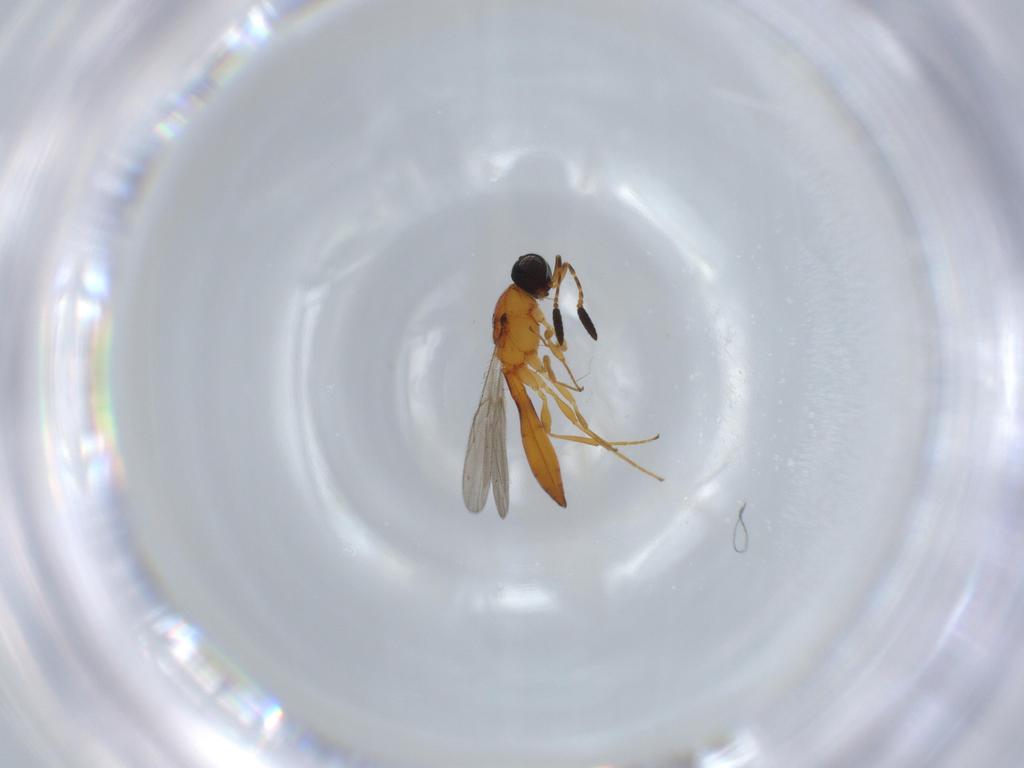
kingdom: Animalia
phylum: Arthropoda
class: Insecta
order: Hymenoptera
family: Scelionidae
